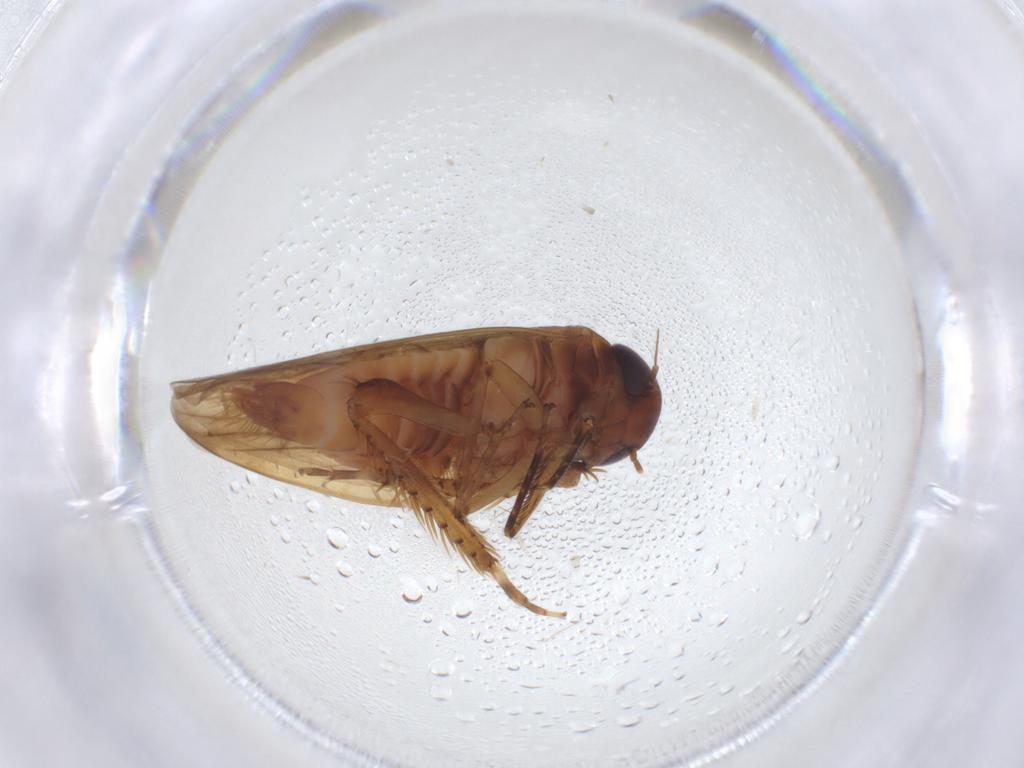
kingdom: Animalia
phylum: Arthropoda
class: Insecta
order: Hemiptera
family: Cicadellidae
